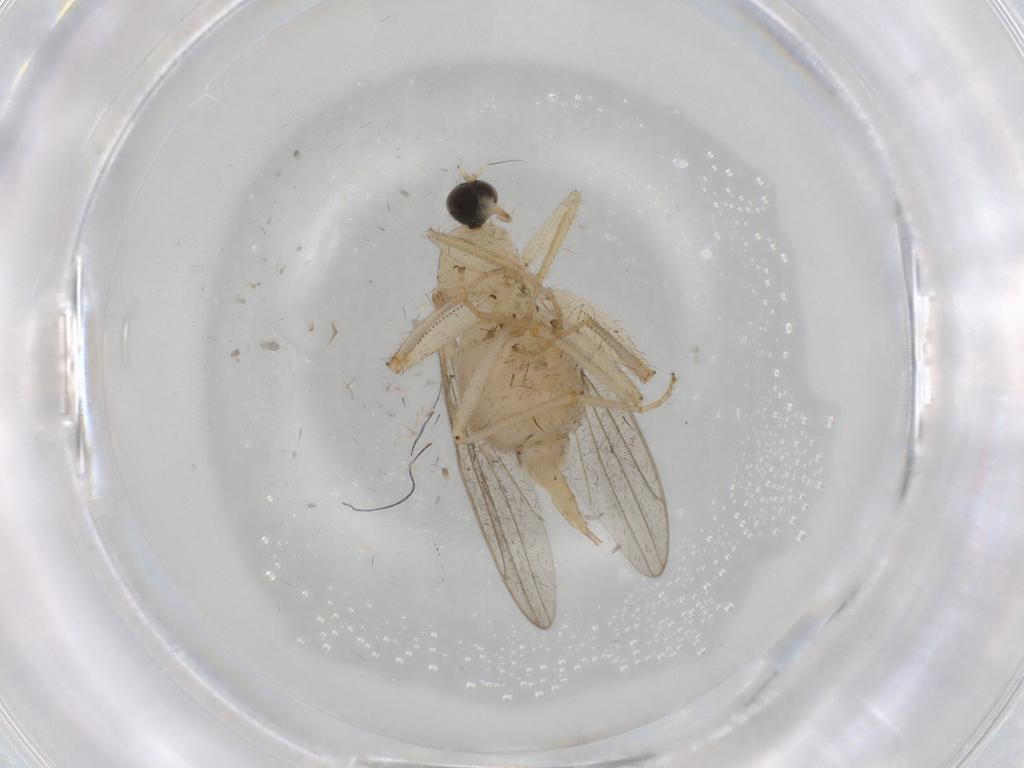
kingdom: Animalia
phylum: Arthropoda
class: Insecta
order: Diptera
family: Hybotidae
